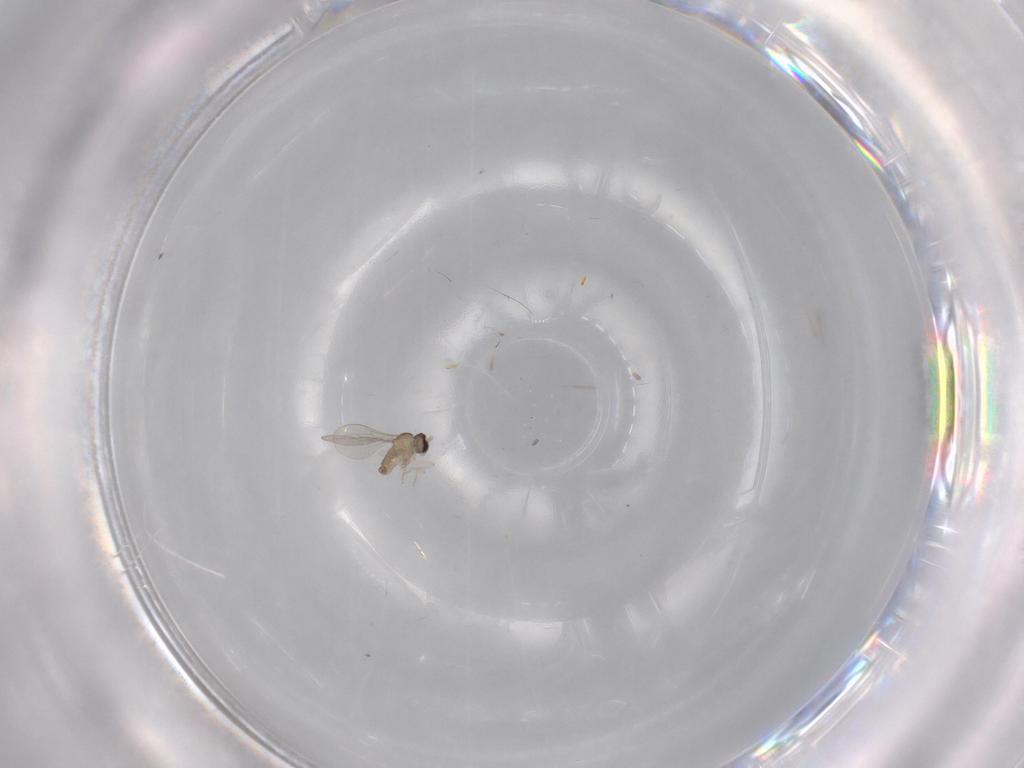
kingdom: Animalia
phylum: Arthropoda
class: Insecta
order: Diptera
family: Cecidomyiidae
